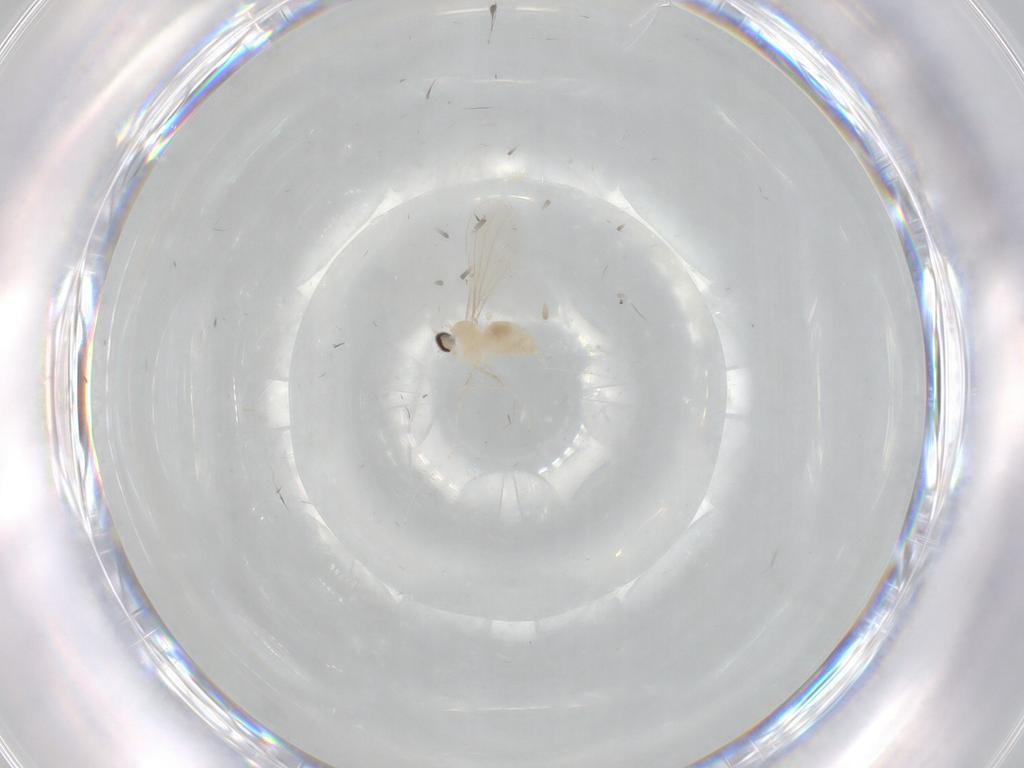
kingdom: Animalia
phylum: Arthropoda
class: Insecta
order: Diptera
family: Cecidomyiidae
